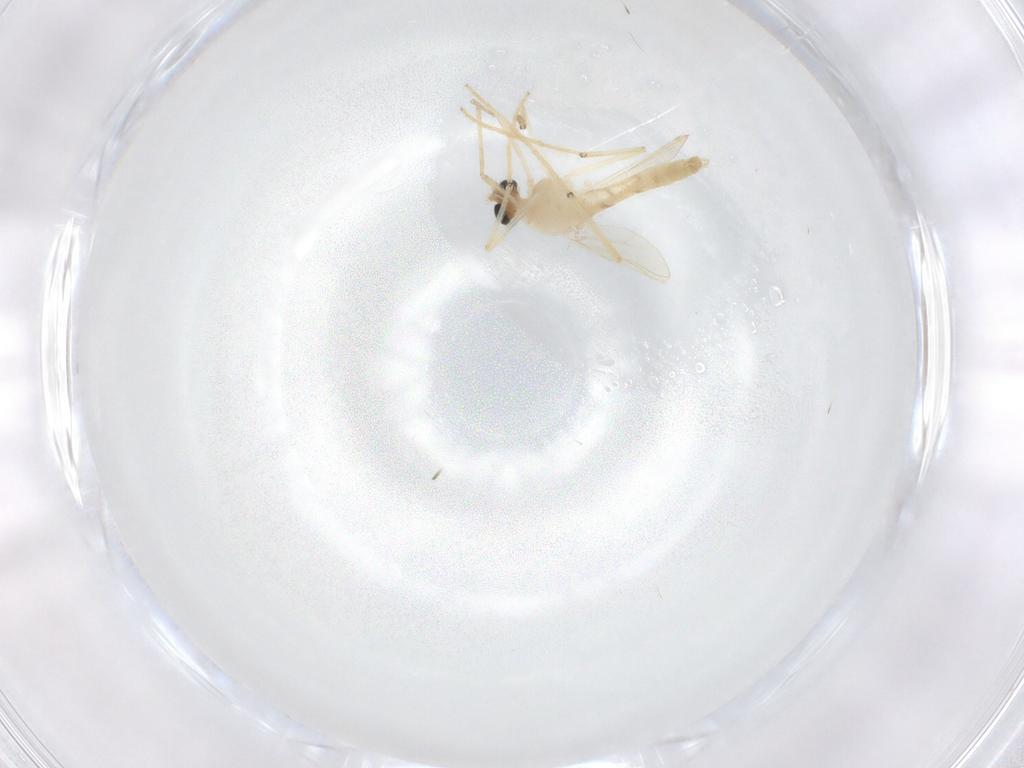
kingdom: Animalia
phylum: Arthropoda
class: Insecta
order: Diptera
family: Chironomidae
